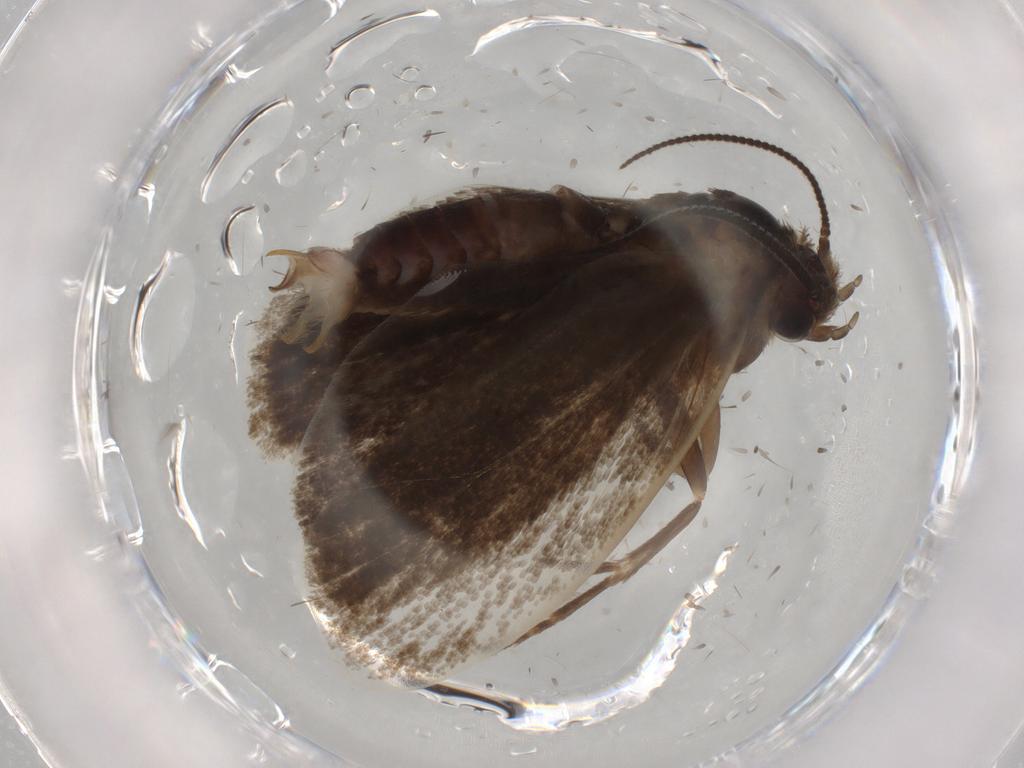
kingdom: Animalia
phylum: Arthropoda
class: Insecta
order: Lepidoptera
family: Tineidae
